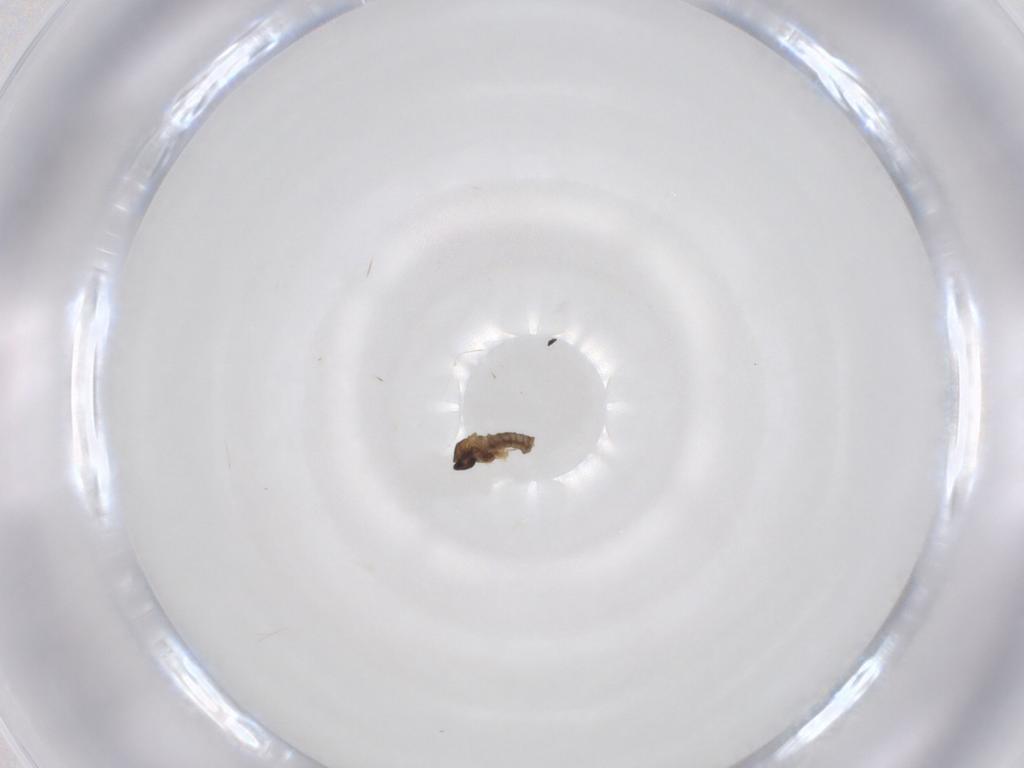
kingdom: Animalia
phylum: Arthropoda
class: Insecta
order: Diptera
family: Cecidomyiidae
